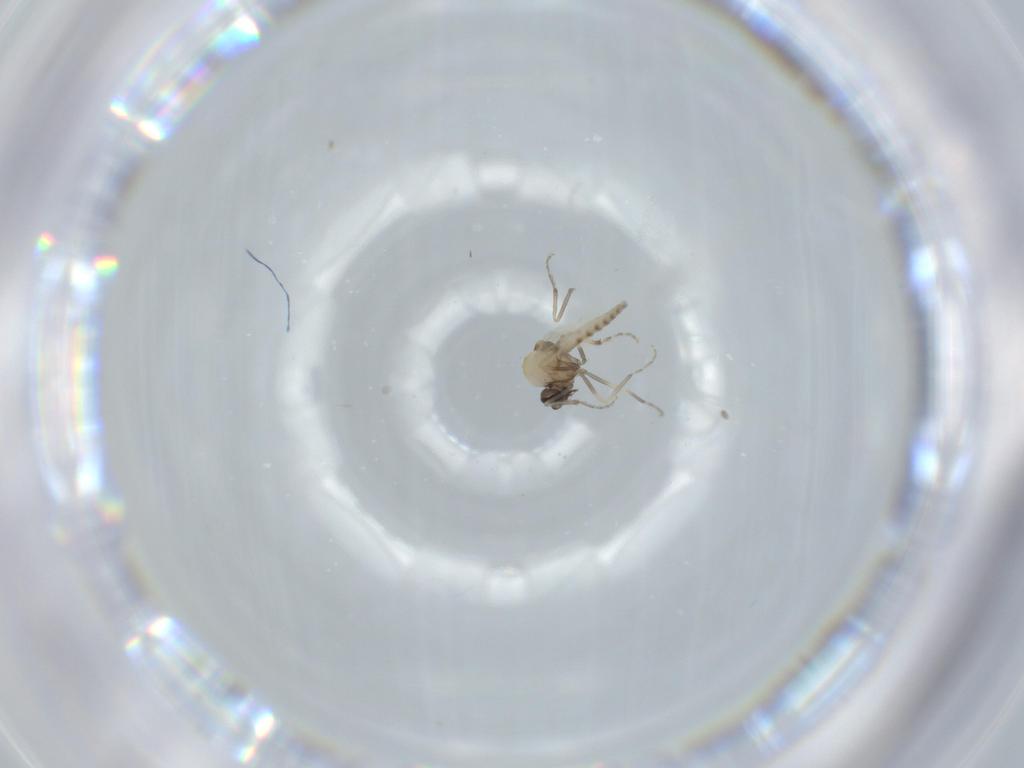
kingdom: Animalia
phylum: Arthropoda
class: Insecta
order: Diptera
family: Ceratopogonidae
